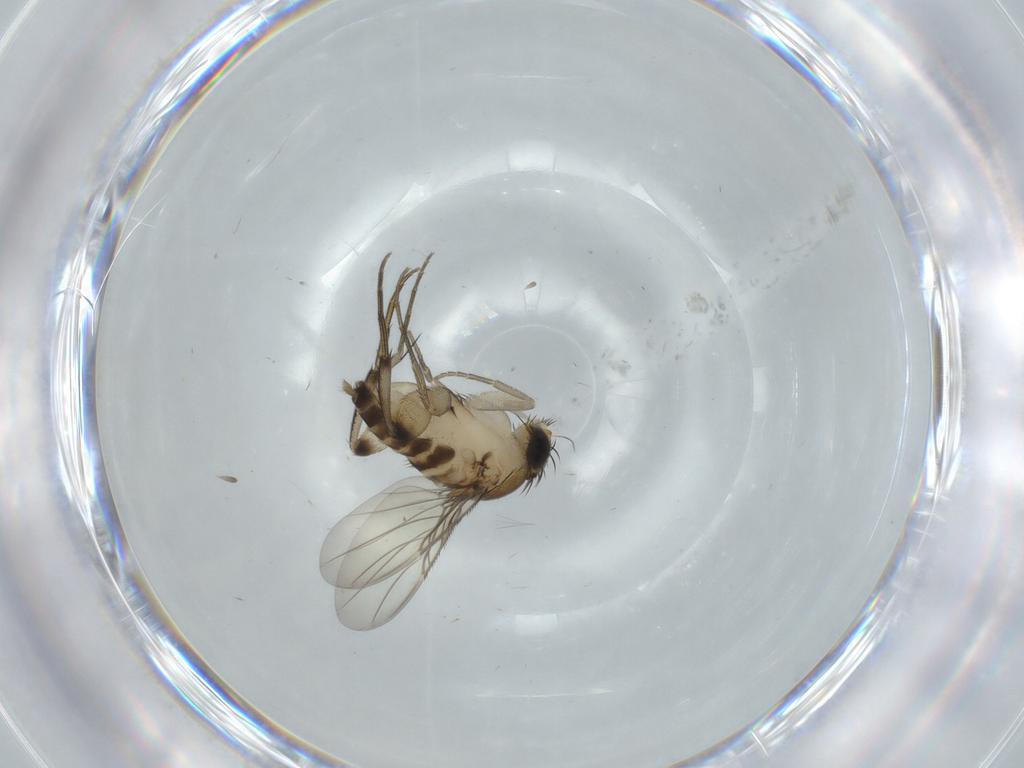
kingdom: Animalia
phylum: Arthropoda
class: Insecta
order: Diptera
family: Phoridae
